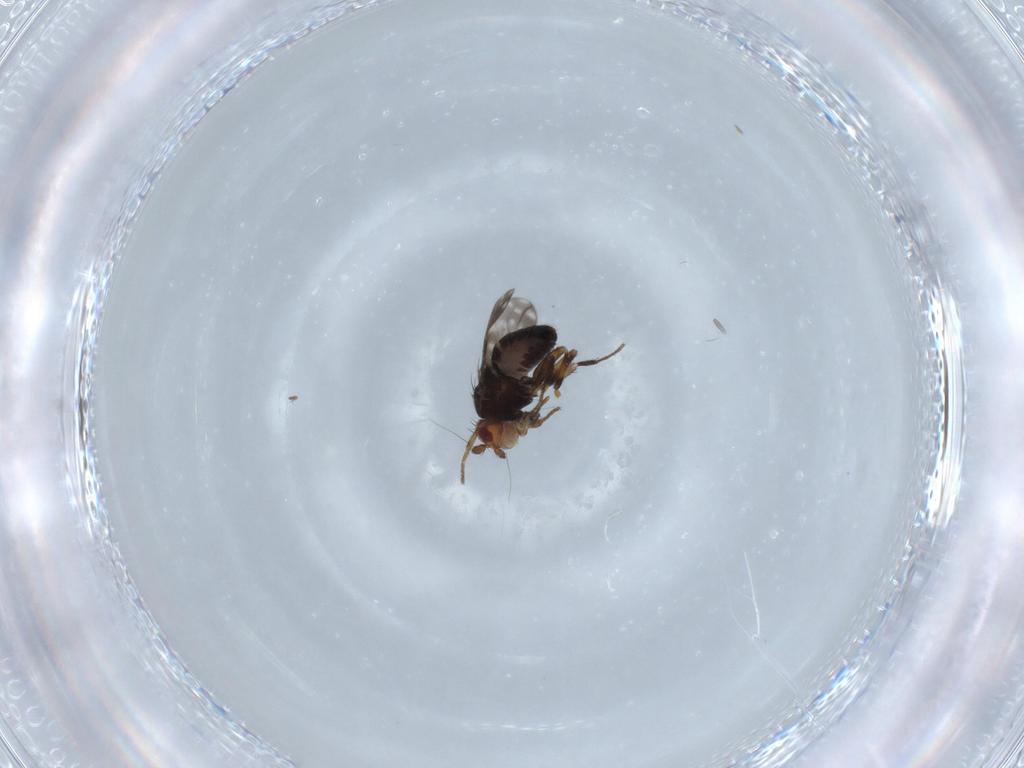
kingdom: Animalia
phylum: Arthropoda
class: Insecta
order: Diptera
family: Sphaeroceridae
